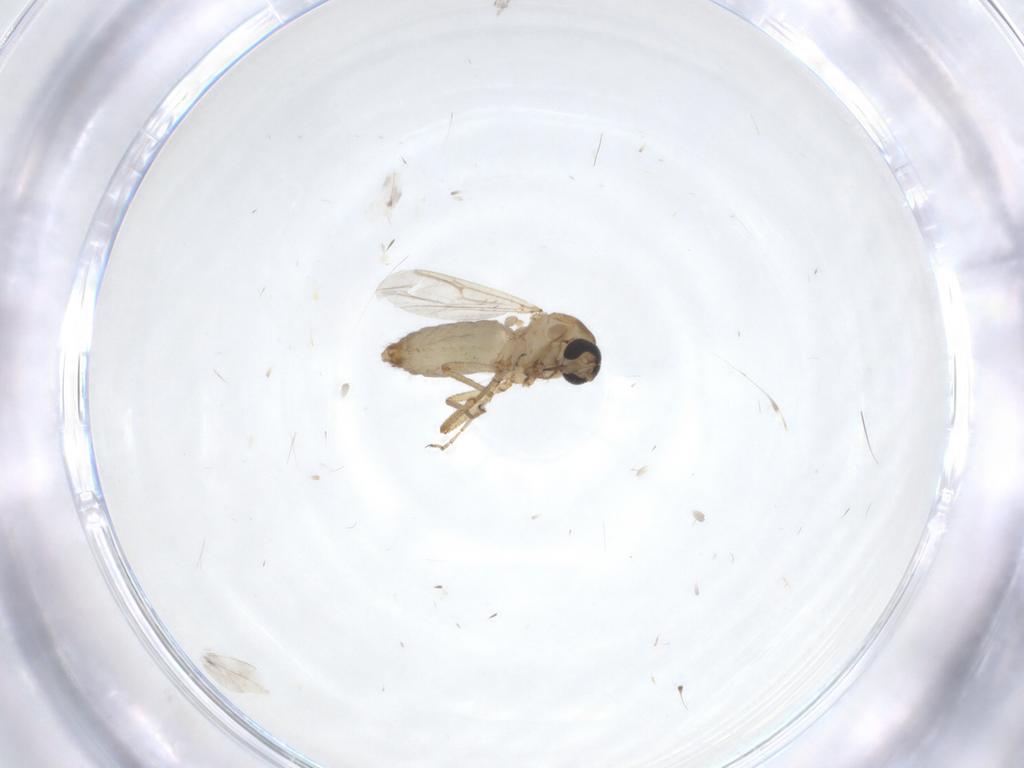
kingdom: Animalia
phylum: Arthropoda
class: Insecta
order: Diptera
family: Ceratopogonidae
